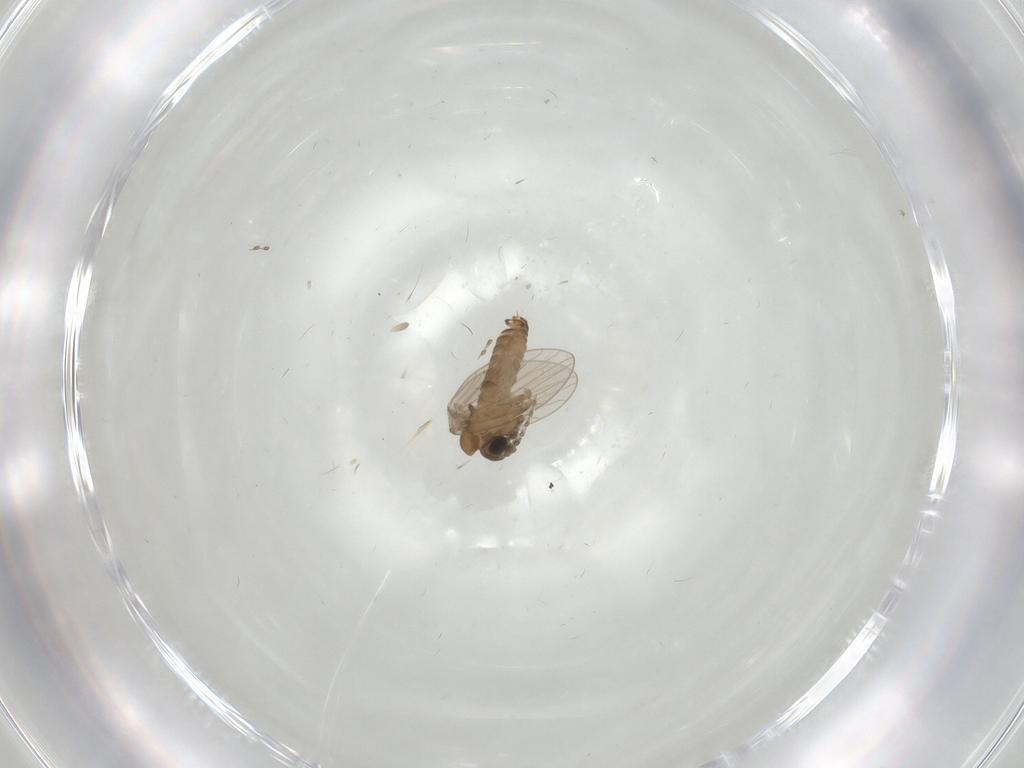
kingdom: Animalia
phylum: Arthropoda
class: Insecta
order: Diptera
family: Psychodidae
